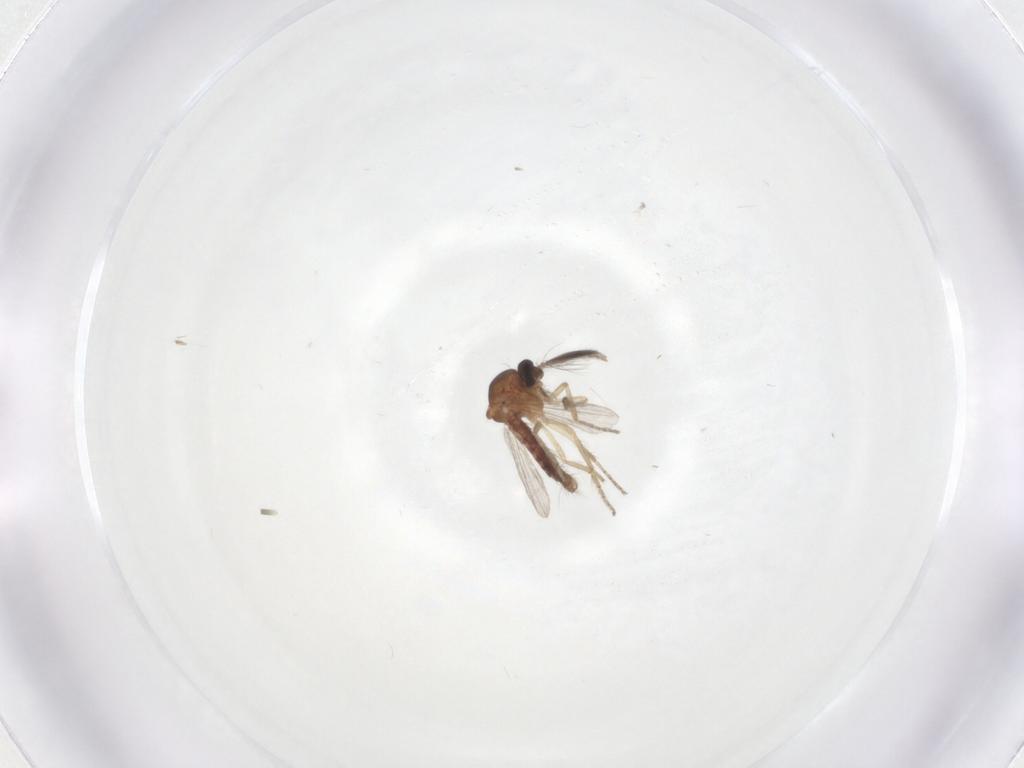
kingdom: Animalia
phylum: Arthropoda
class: Insecta
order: Diptera
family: Ceratopogonidae
